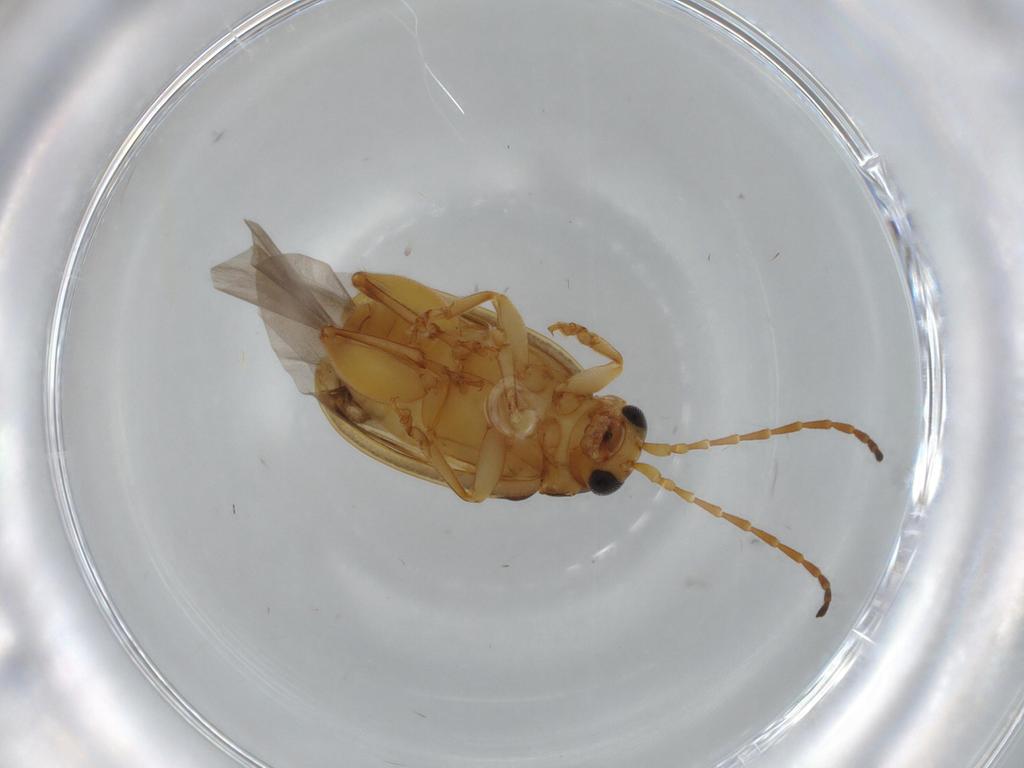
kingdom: Animalia
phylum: Arthropoda
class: Insecta
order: Coleoptera
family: Chrysomelidae
